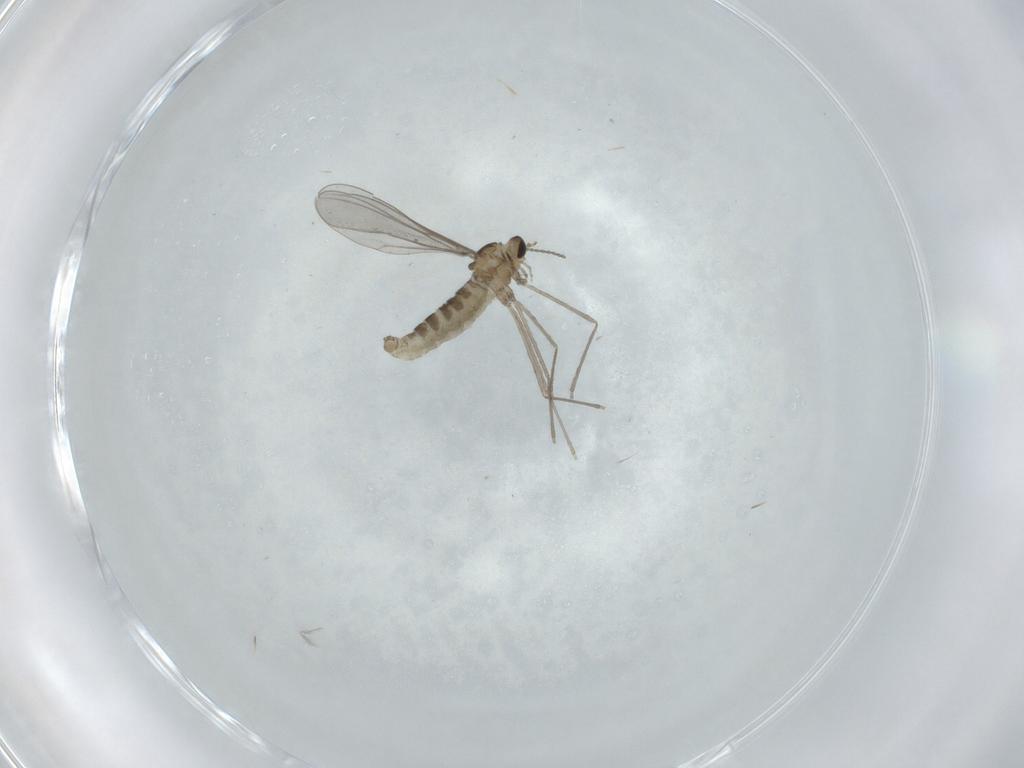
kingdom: Animalia
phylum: Arthropoda
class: Insecta
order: Diptera
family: Cecidomyiidae
